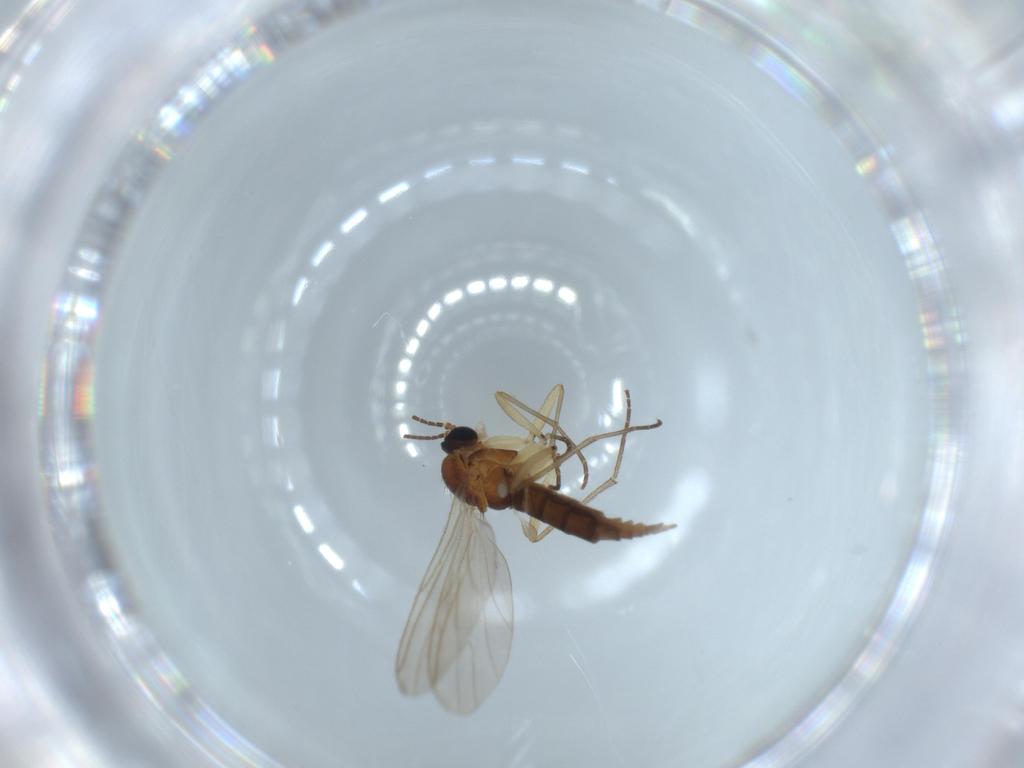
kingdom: Animalia
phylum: Arthropoda
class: Insecta
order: Diptera
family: Sciaridae
